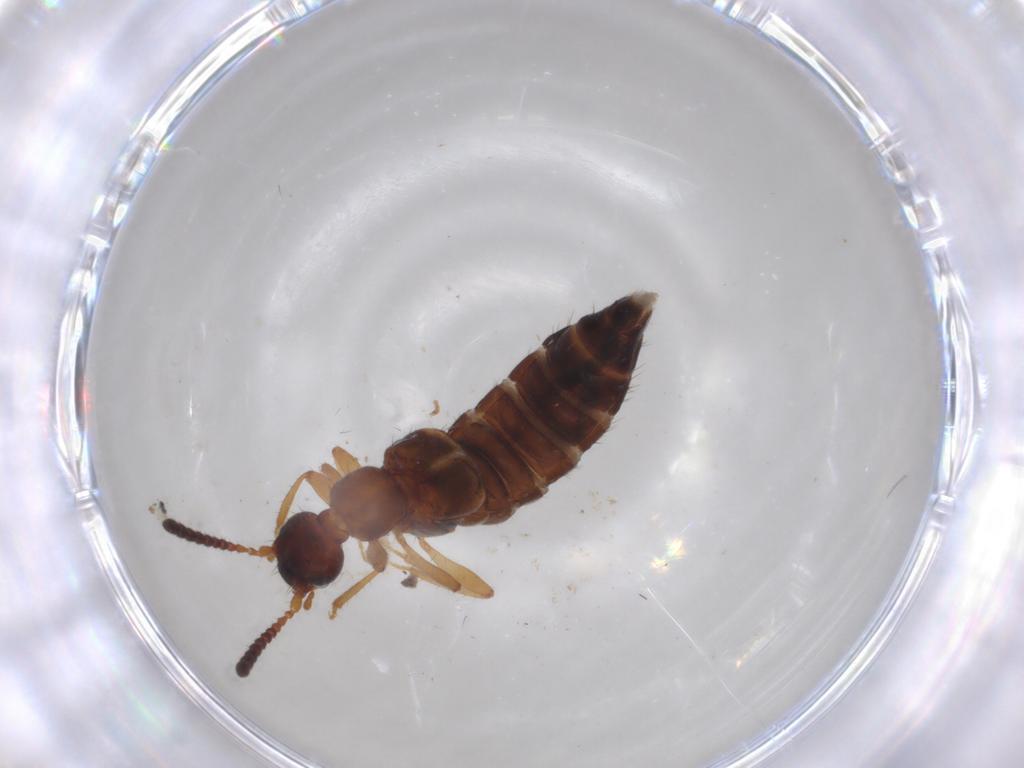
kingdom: Animalia
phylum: Arthropoda
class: Insecta
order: Coleoptera
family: Staphylinidae
